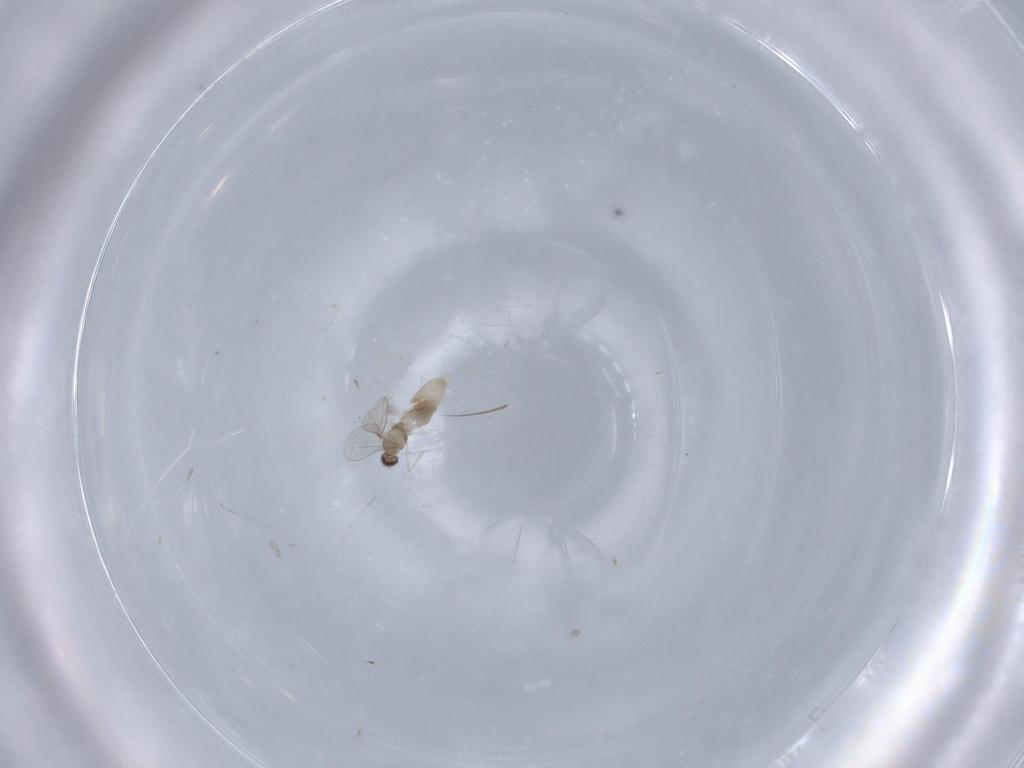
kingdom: Animalia
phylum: Arthropoda
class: Insecta
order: Diptera
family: Cecidomyiidae
